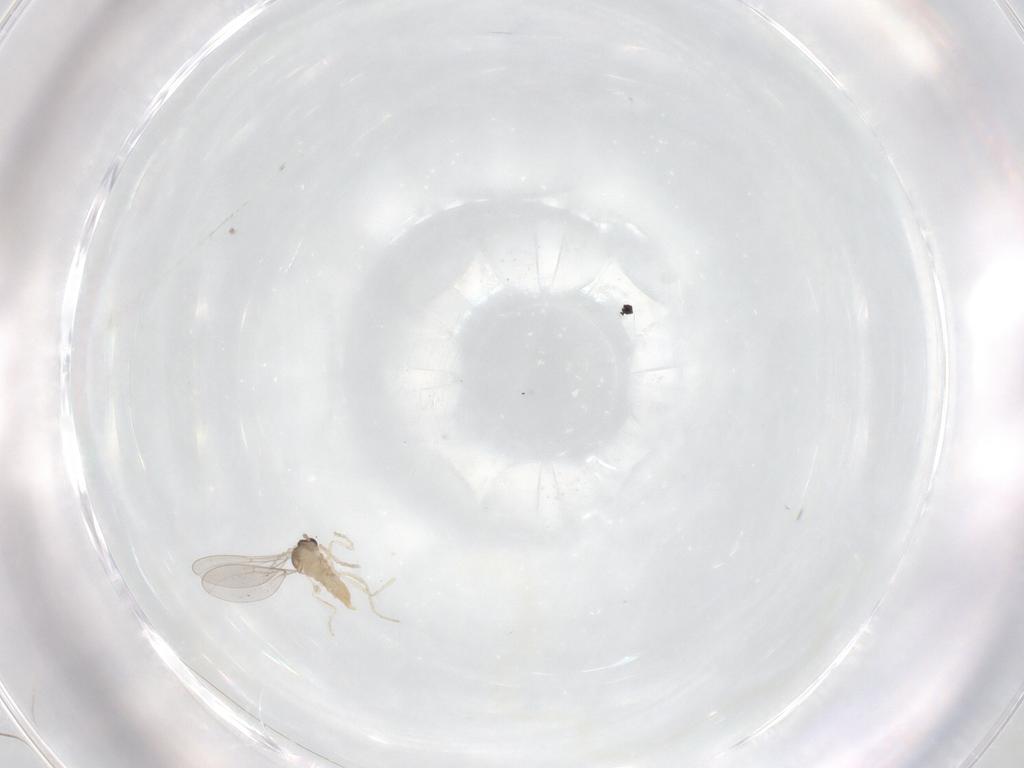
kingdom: Animalia
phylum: Arthropoda
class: Insecta
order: Diptera
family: Cecidomyiidae
